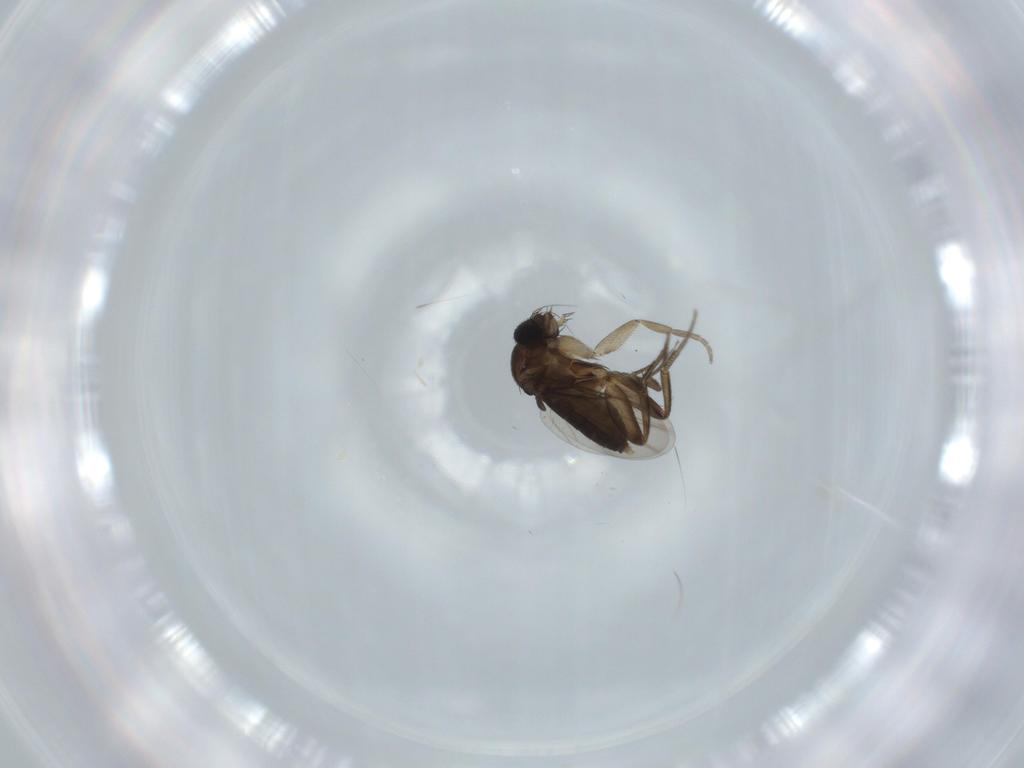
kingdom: Animalia
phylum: Arthropoda
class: Insecta
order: Diptera
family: Phoridae
